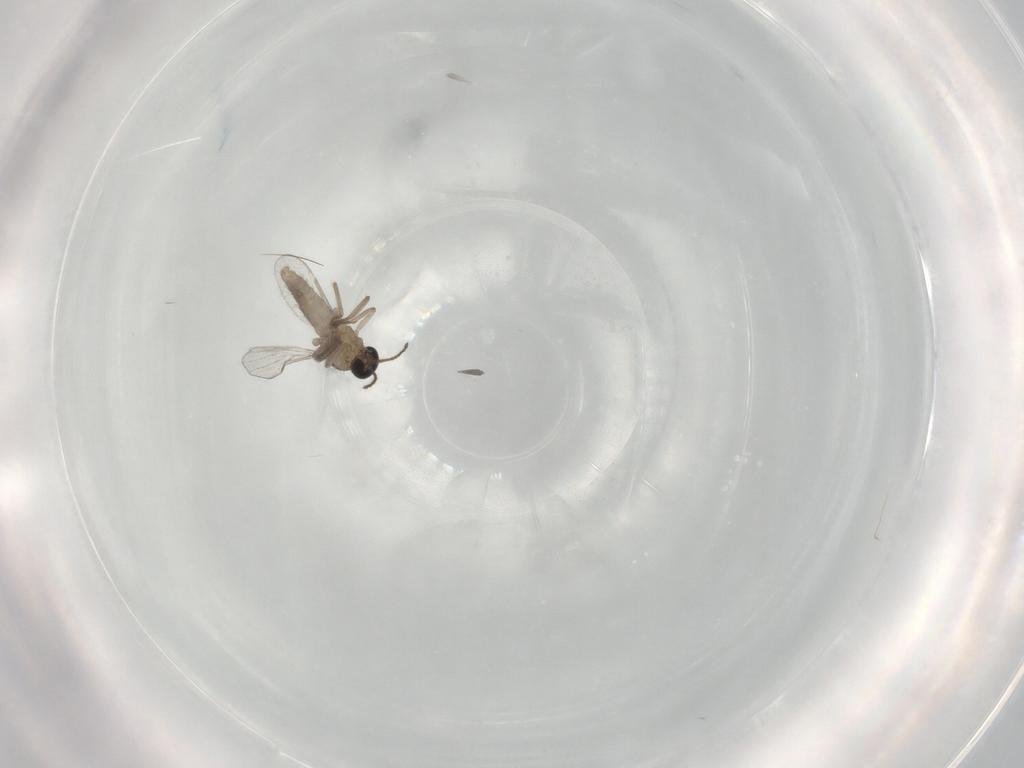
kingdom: Animalia
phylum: Arthropoda
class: Insecta
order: Diptera
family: Ceratopogonidae
